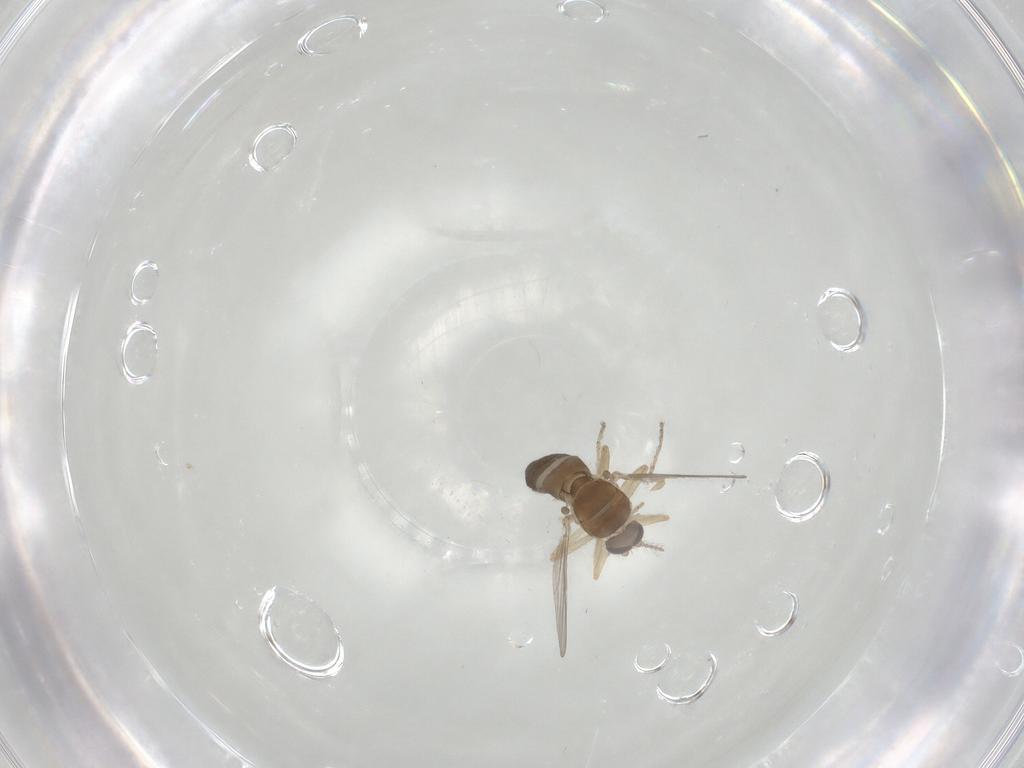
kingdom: Animalia
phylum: Arthropoda
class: Insecta
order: Diptera
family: Ceratopogonidae
